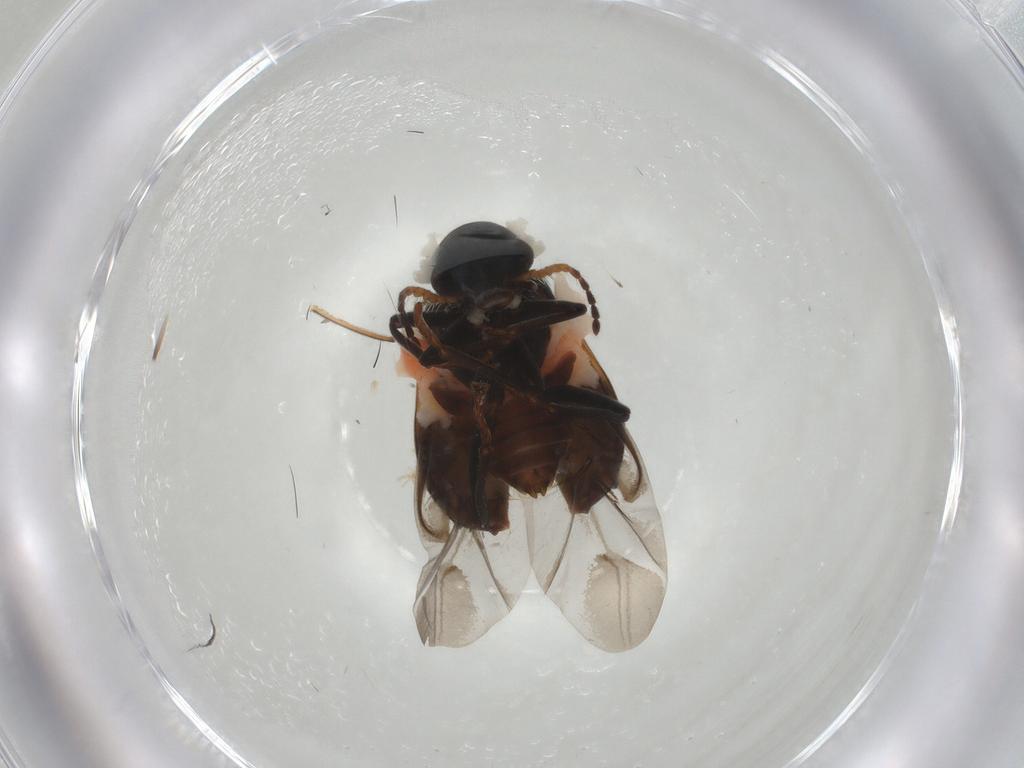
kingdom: Animalia
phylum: Arthropoda
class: Insecta
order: Coleoptera
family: Melyridae
